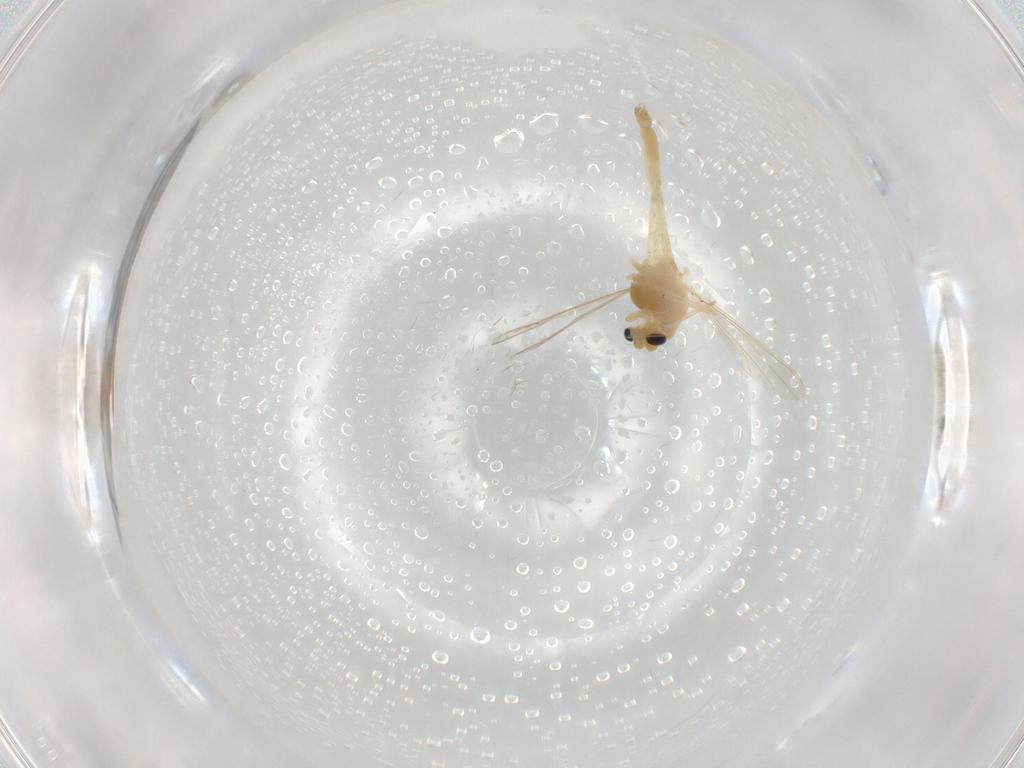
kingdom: Animalia
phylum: Arthropoda
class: Insecta
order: Diptera
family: Chironomidae
